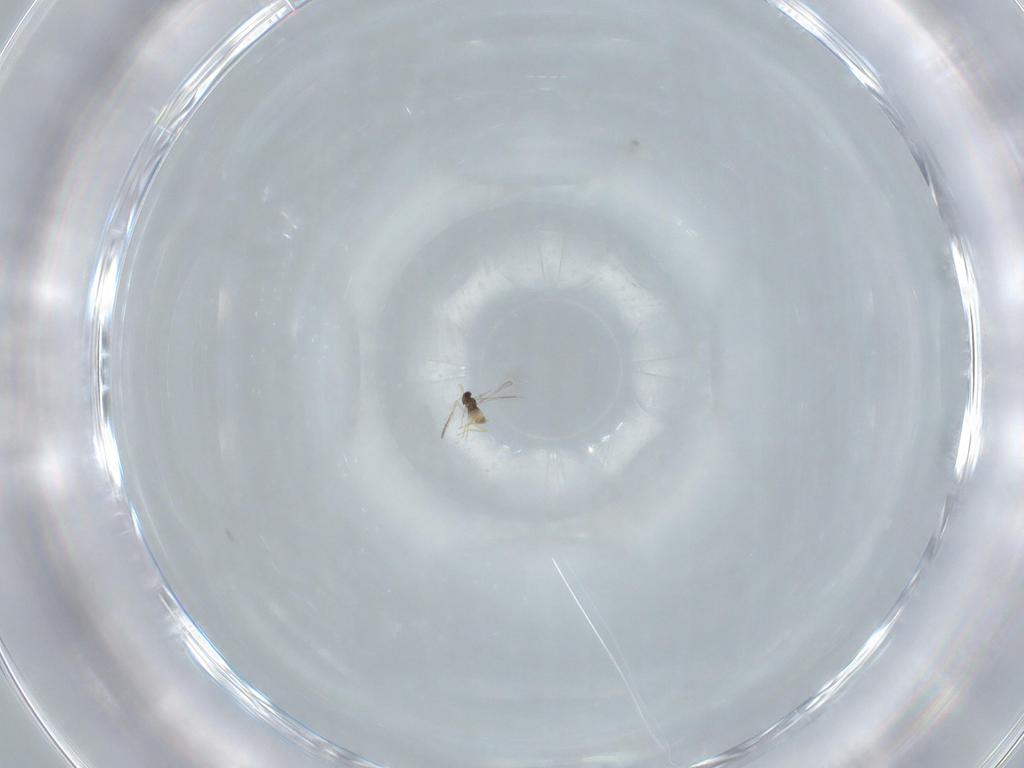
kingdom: Animalia
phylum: Arthropoda
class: Insecta
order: Hymenoptera
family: Scelionidae
